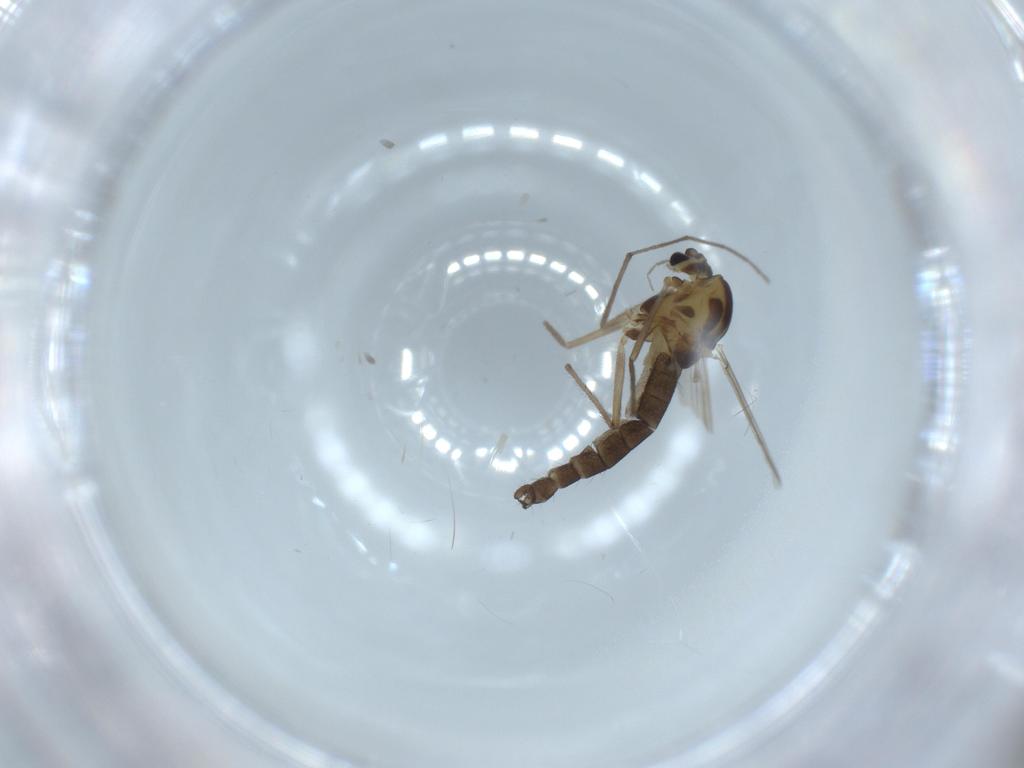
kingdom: Animalia
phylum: Arthropoda
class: Insecta
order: Diptera
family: Chironomidae
